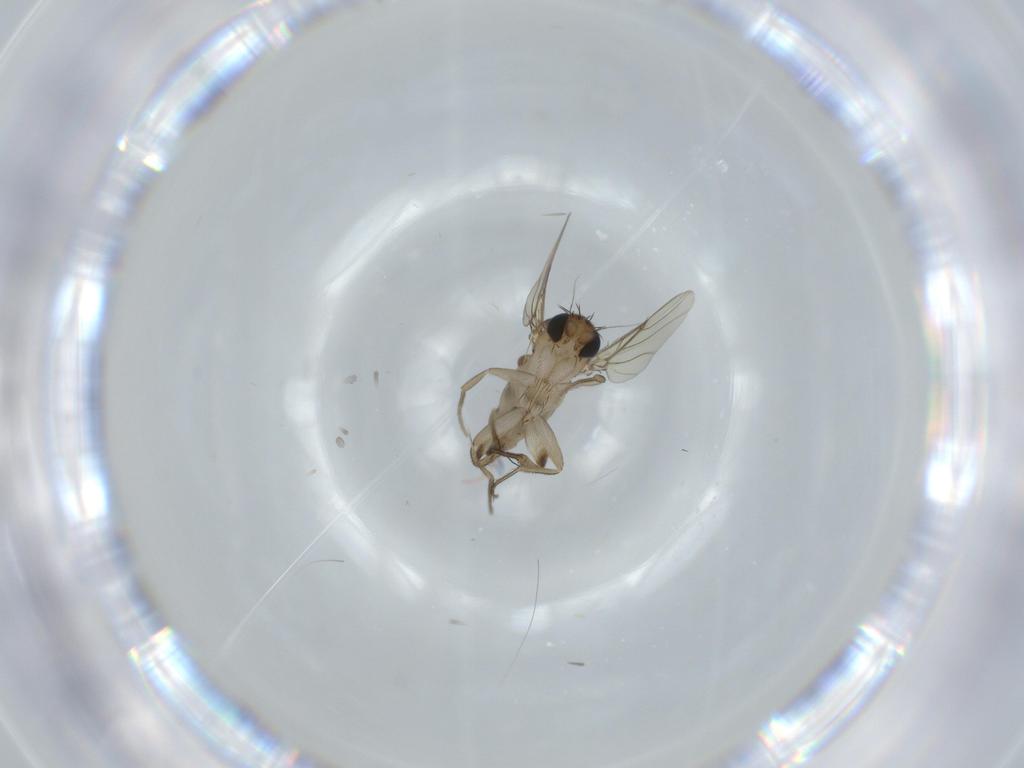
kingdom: Animalia
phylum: Arthropoda
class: Insecta
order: Diptera
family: Phoridae
